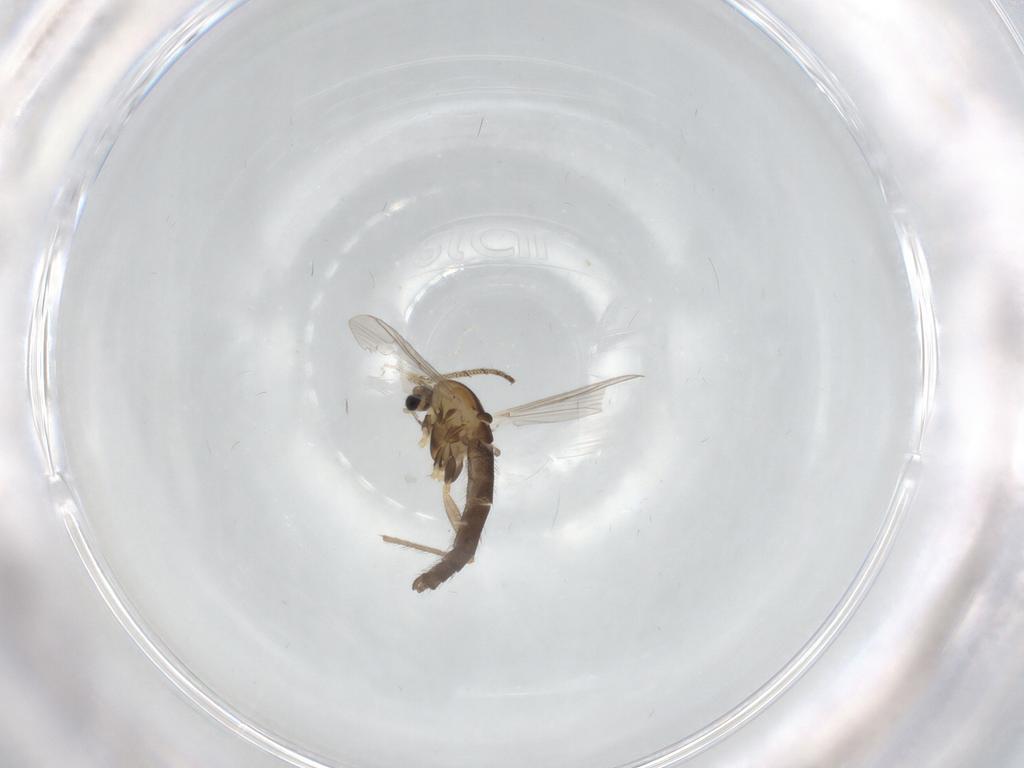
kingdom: Animalia
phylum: Arthropoda
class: Insecta
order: Diptera
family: Chironomidae
